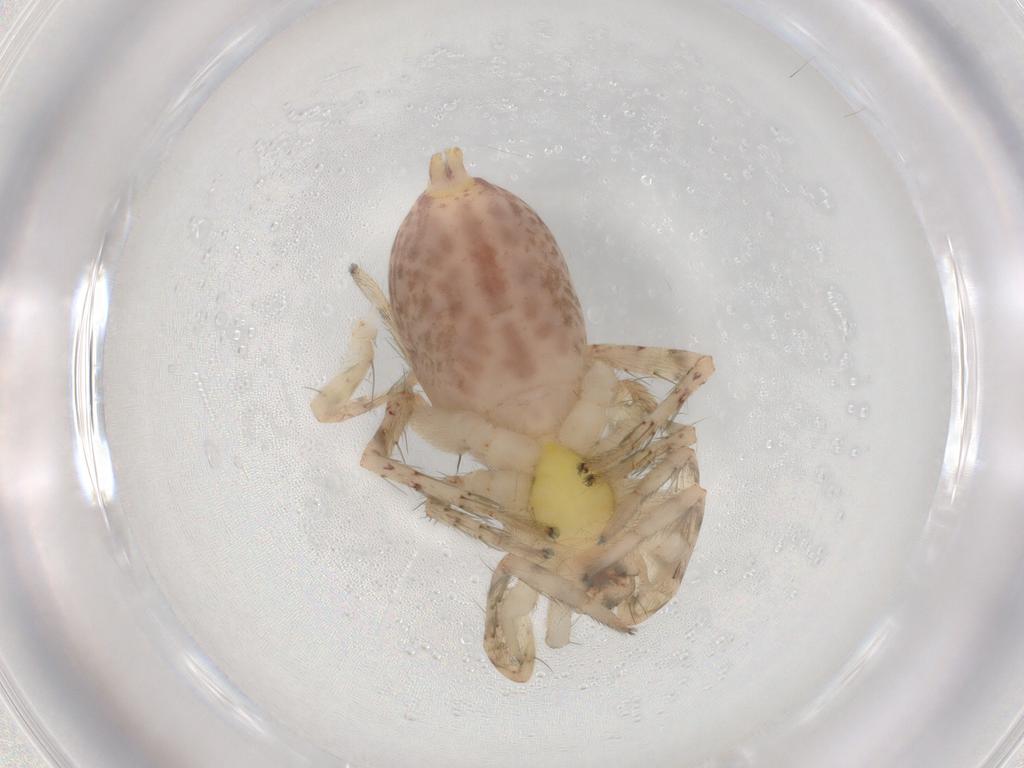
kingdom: Animalia
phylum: Arthropoda
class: Arachnida
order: Araneae
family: Anyphaenidae
